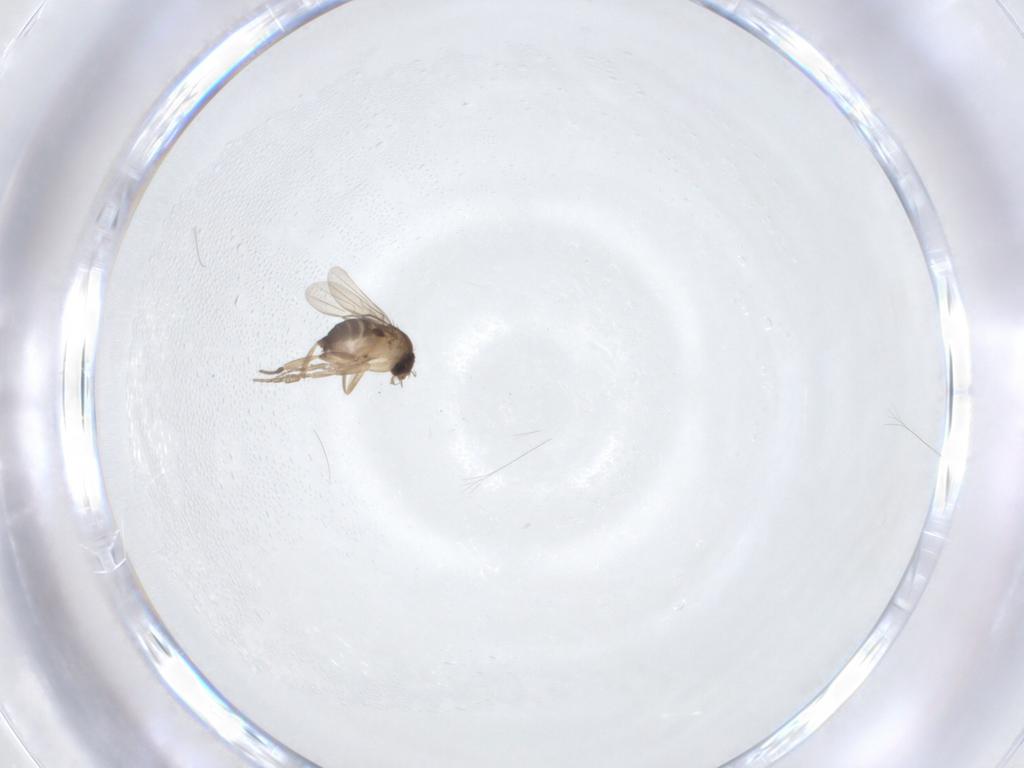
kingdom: Animalia
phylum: Arthropoda
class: Insecta
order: Diptera
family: Phoridae
